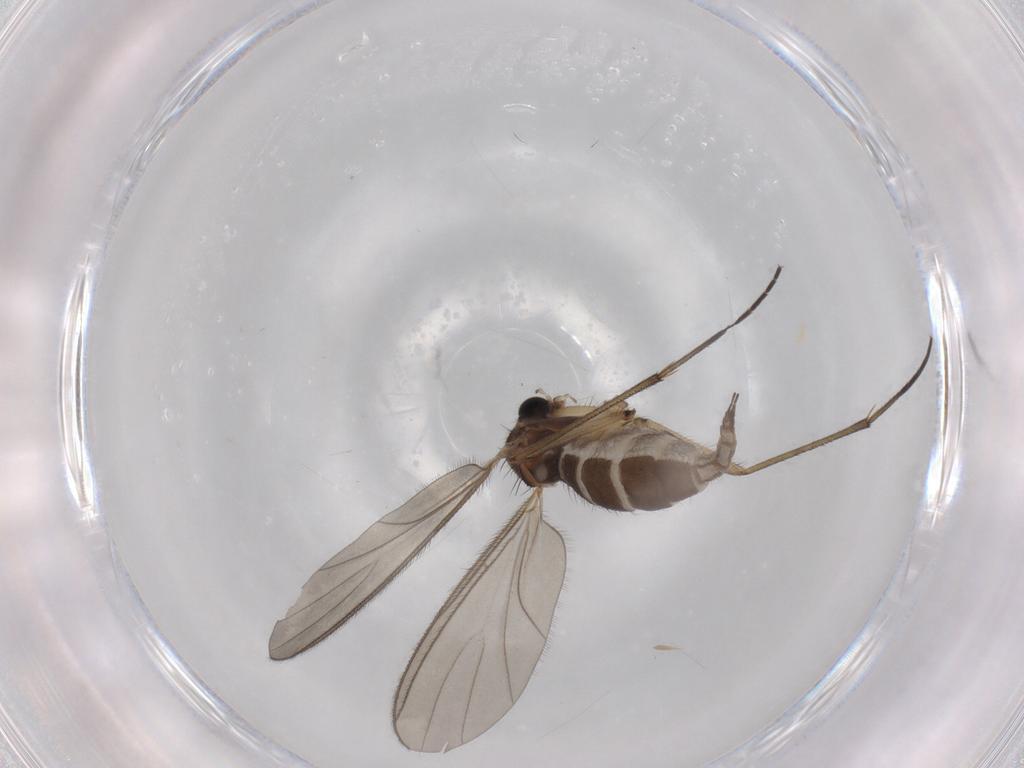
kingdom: Animalia
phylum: Arthropoda
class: Insecta
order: Diptera
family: Sciaridae
